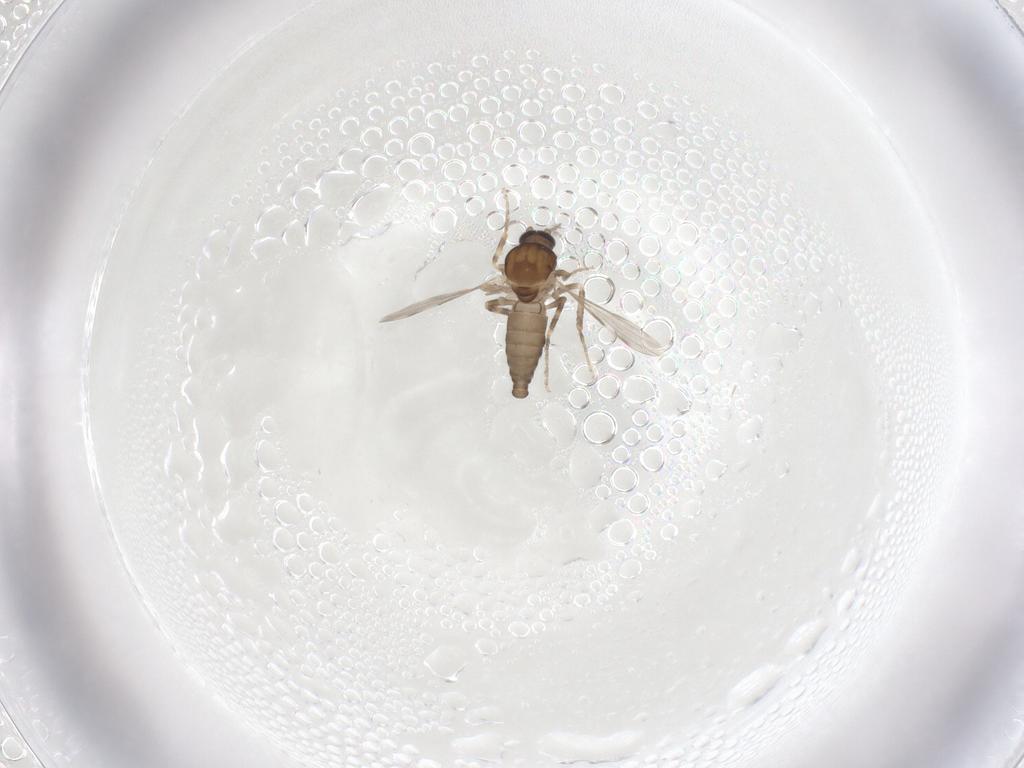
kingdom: Animalia
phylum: Arthropoda
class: Insecta
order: Diptera
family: Ceratopogonidae
